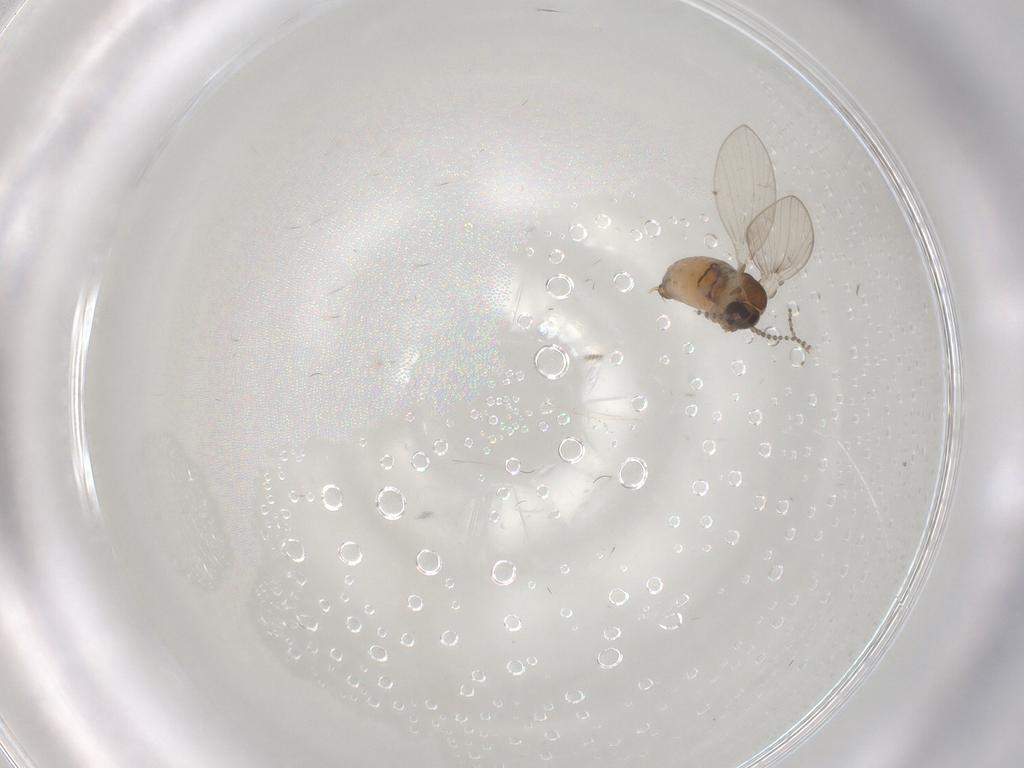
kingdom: Animalia
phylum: Arthropoda
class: Insecta
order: Diptera
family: Psychodidae
